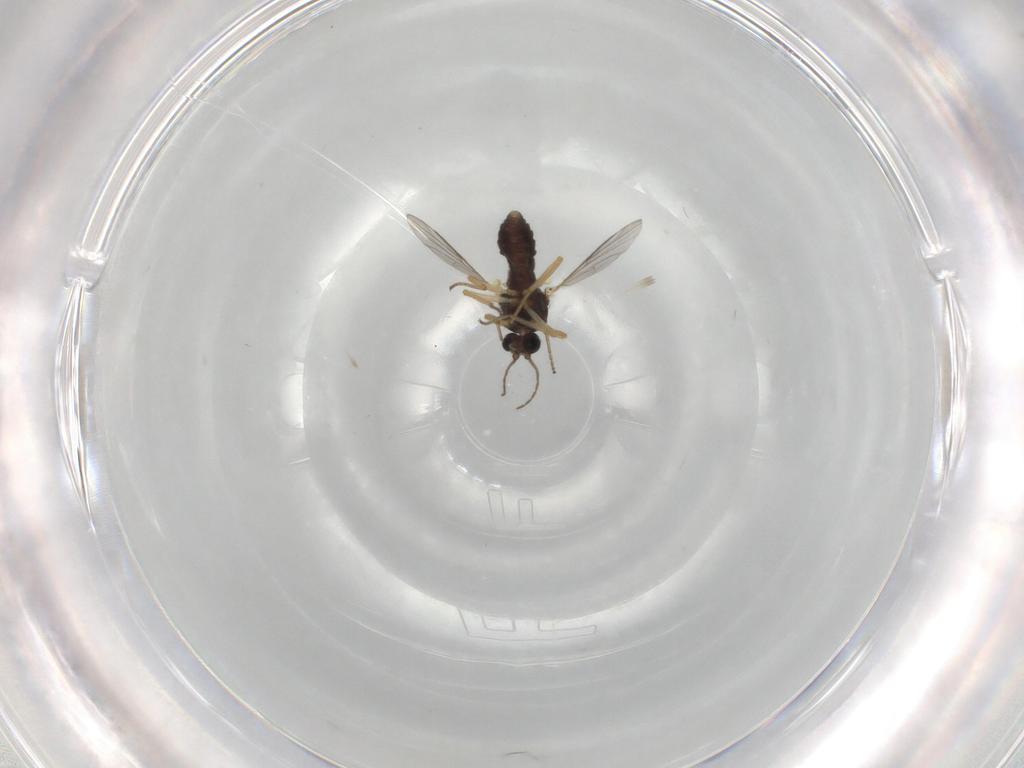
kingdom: Animalia
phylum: Arthropoda
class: Insecta
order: Diptera
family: Ceratopogonidae
